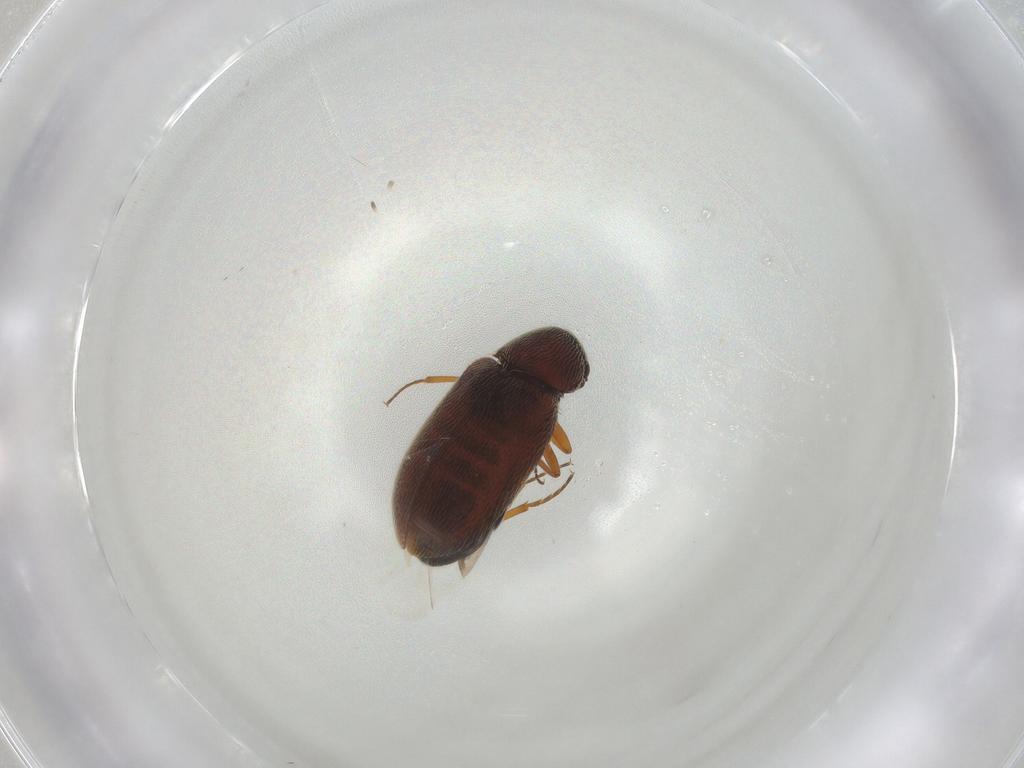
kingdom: Animalia
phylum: Arthropoda
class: Insecta
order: Coleoptera
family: Rhadalidae
